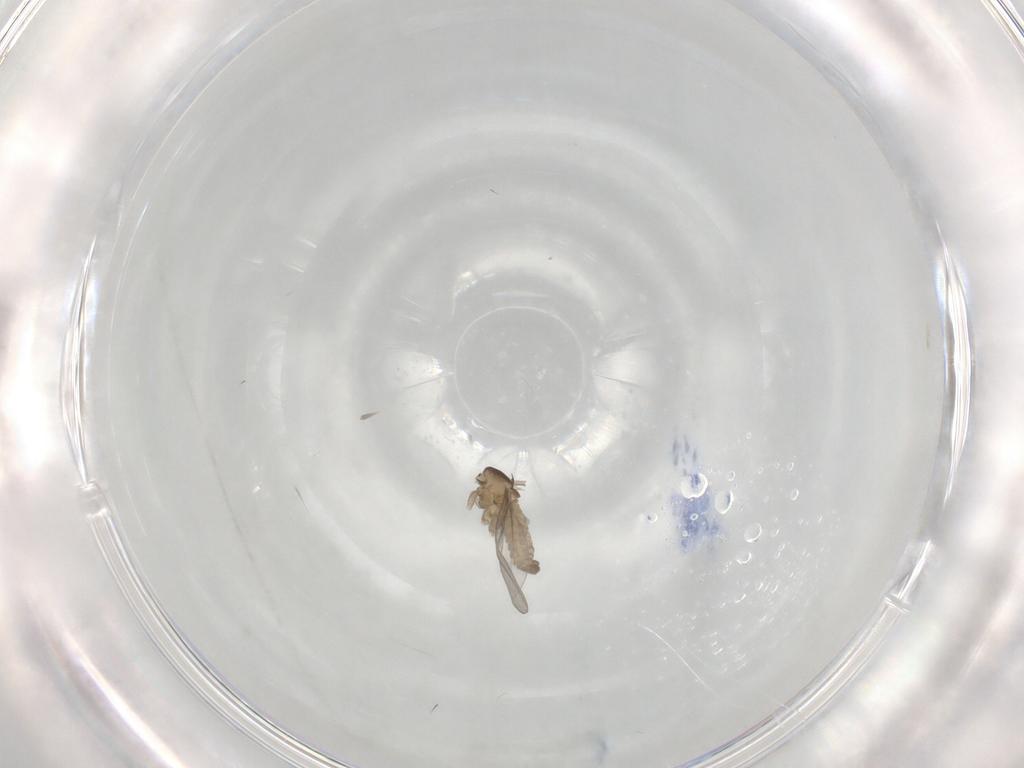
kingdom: Animalia
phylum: Arthropoda
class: Insecta
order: Diptera
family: Cecidomyiidae
